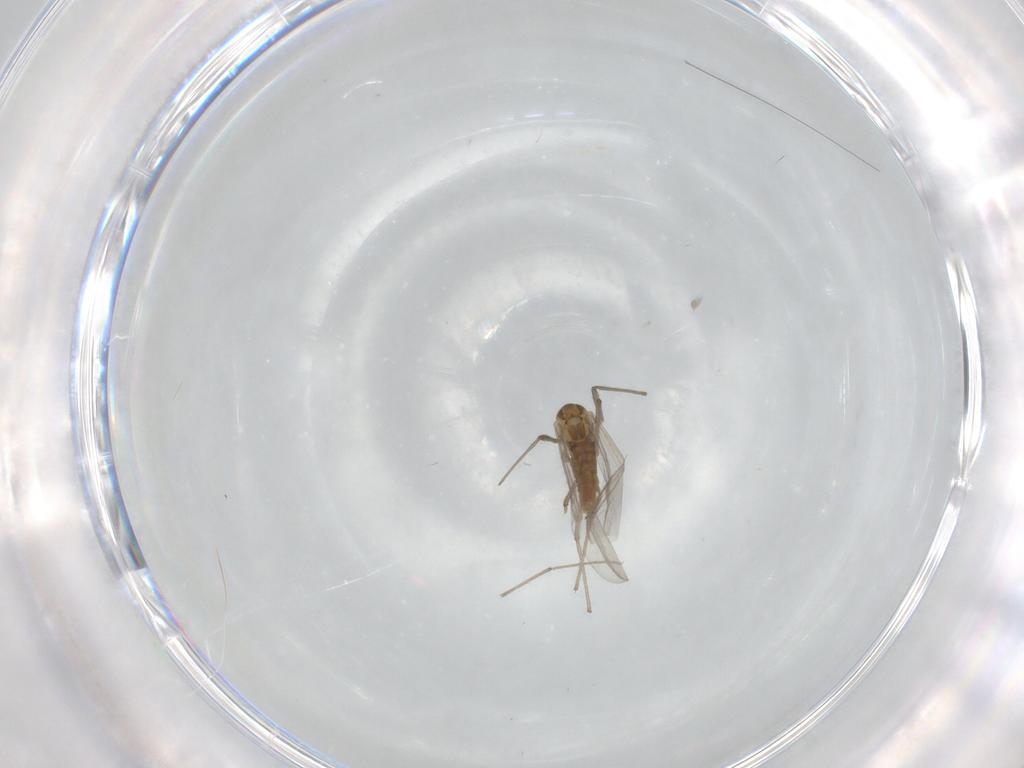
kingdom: Animalia
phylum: Arthropoda
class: Insecta
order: Diptera
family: Chironomidae
